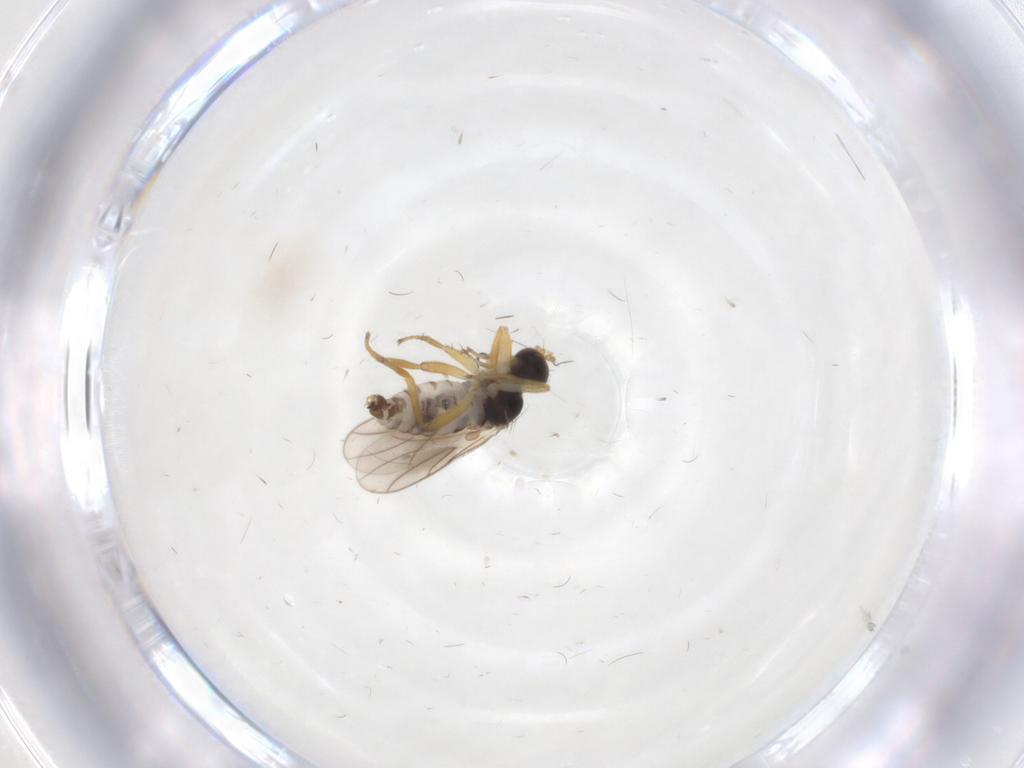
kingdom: Animalia
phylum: Arthropoda
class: Insecta
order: Diptera
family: Hybotidae
